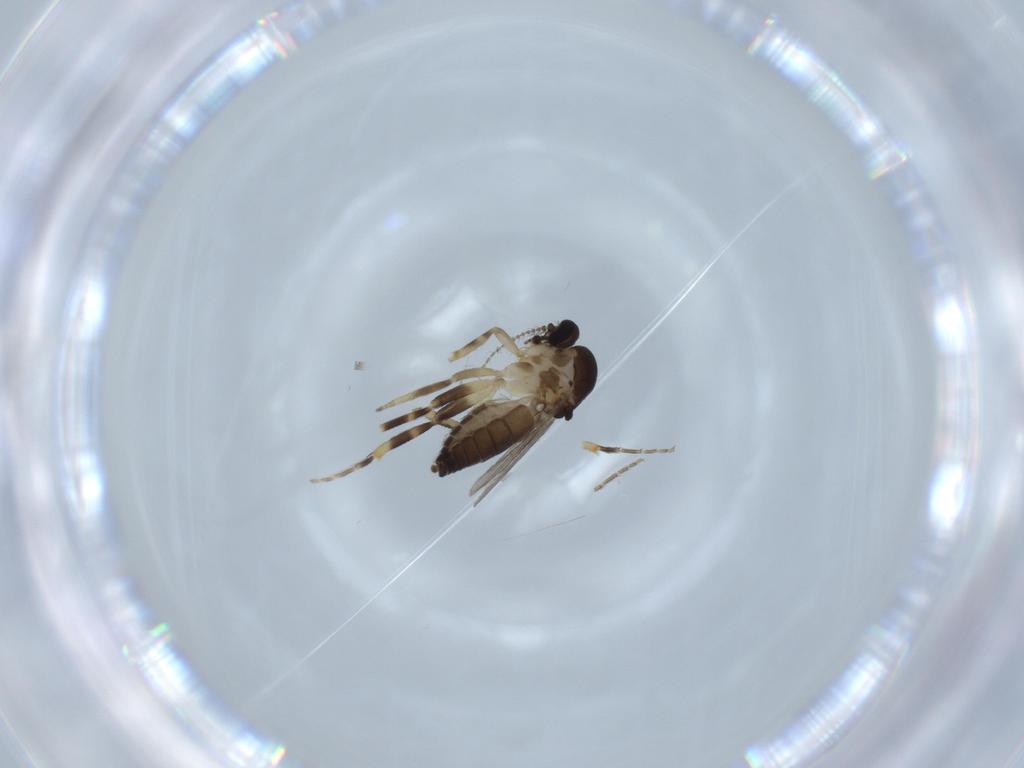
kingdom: Animalia
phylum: Arthropoda
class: Insecta
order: Diptera
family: Ceratopogonidae
